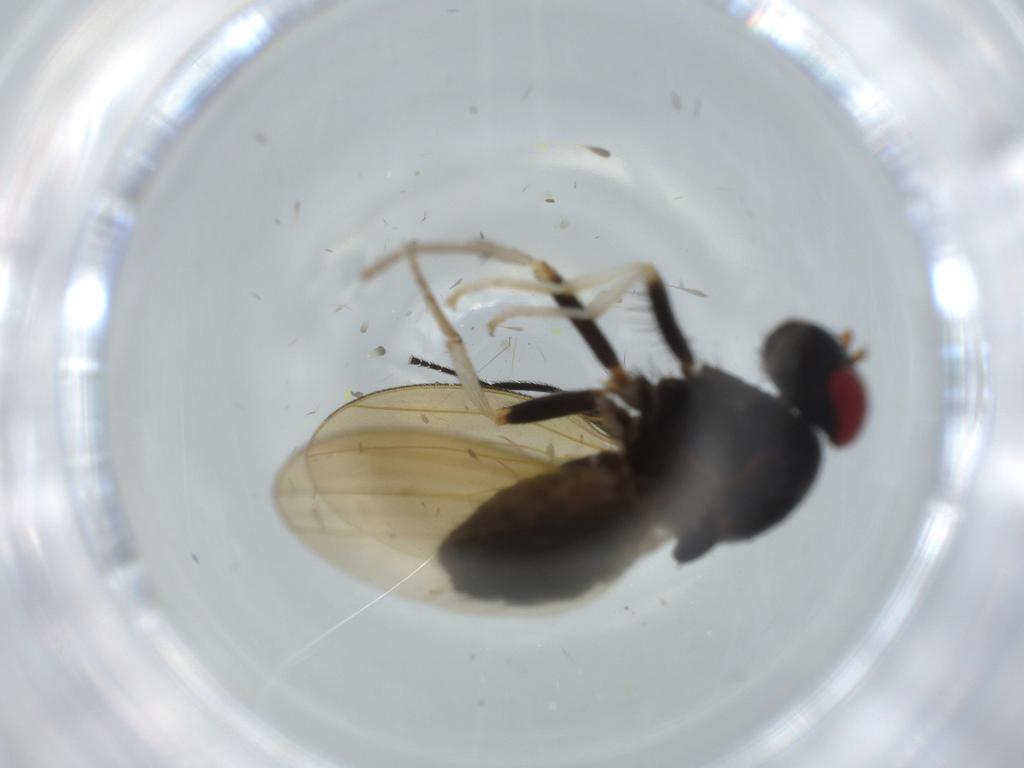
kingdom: Animalia
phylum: Arthropoda
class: Insecta
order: Diptera
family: Milichiidae
